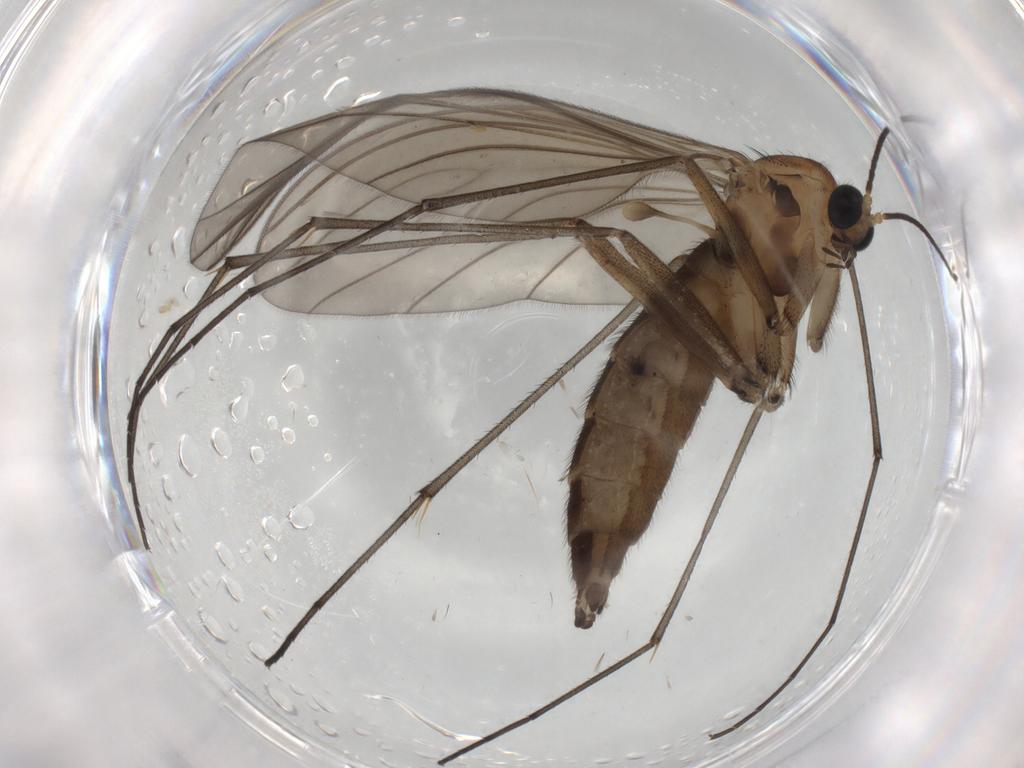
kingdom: Animalia
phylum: Arthropoda
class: Insecta
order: Diptera
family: Sciaridae
